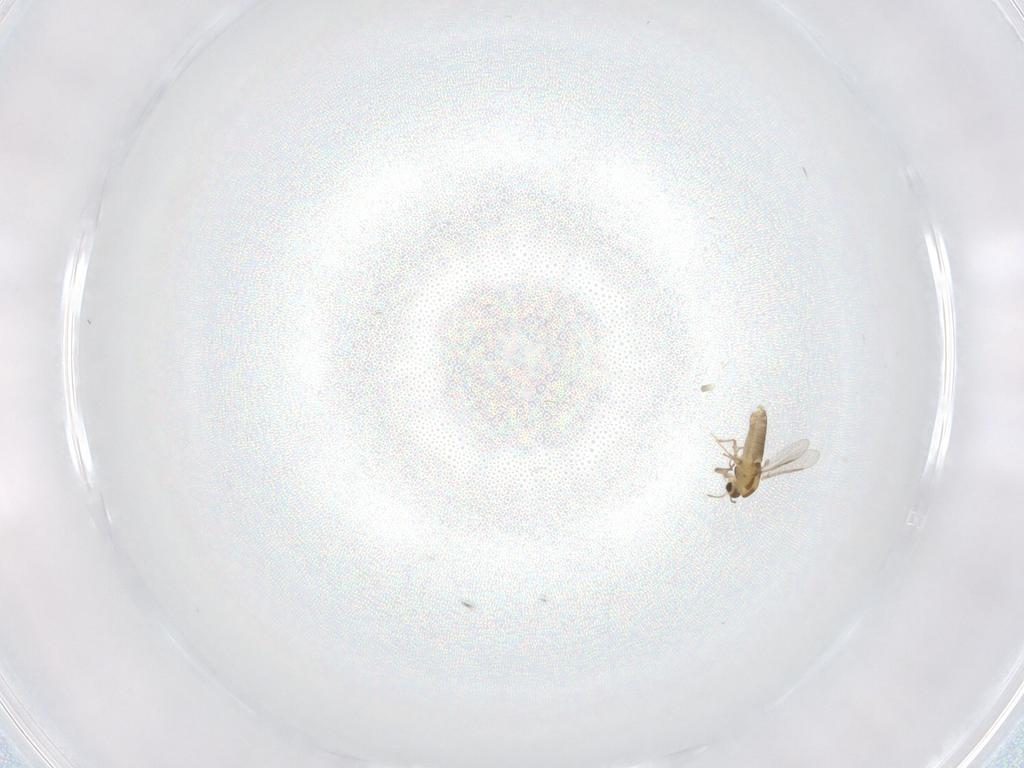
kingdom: Animalia
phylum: Arthropoda
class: Insecta
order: Diptera
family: Chironomidae
